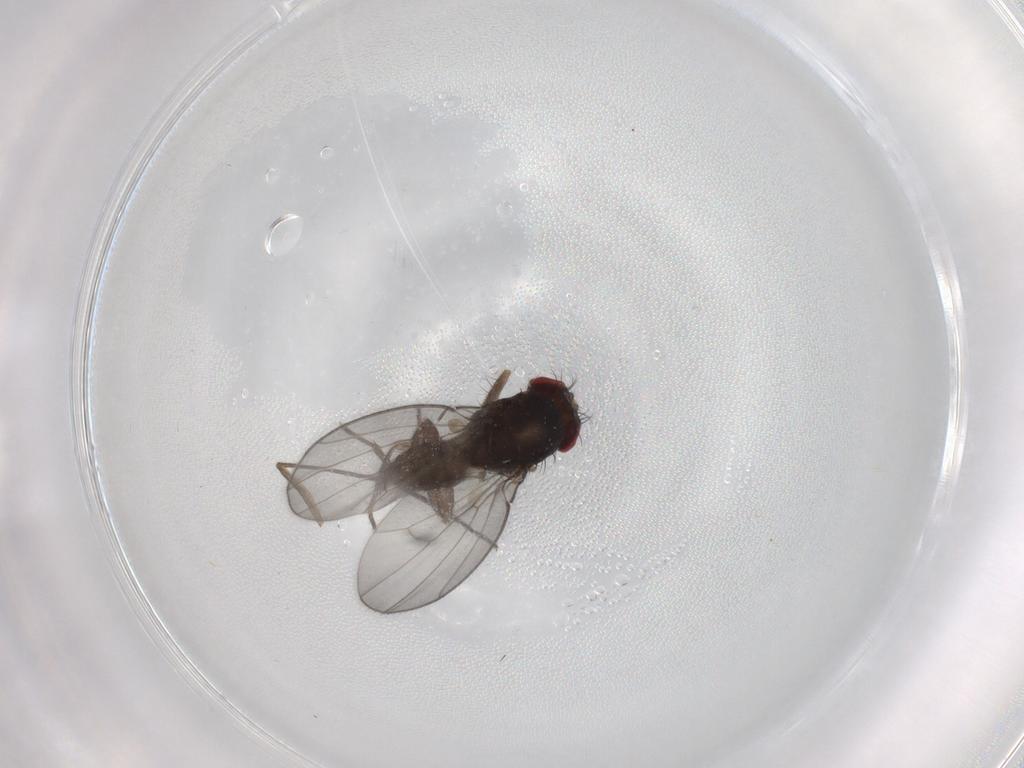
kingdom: Animalia
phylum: Arthropoda
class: Insecta
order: Diptera
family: Drosophilidae
